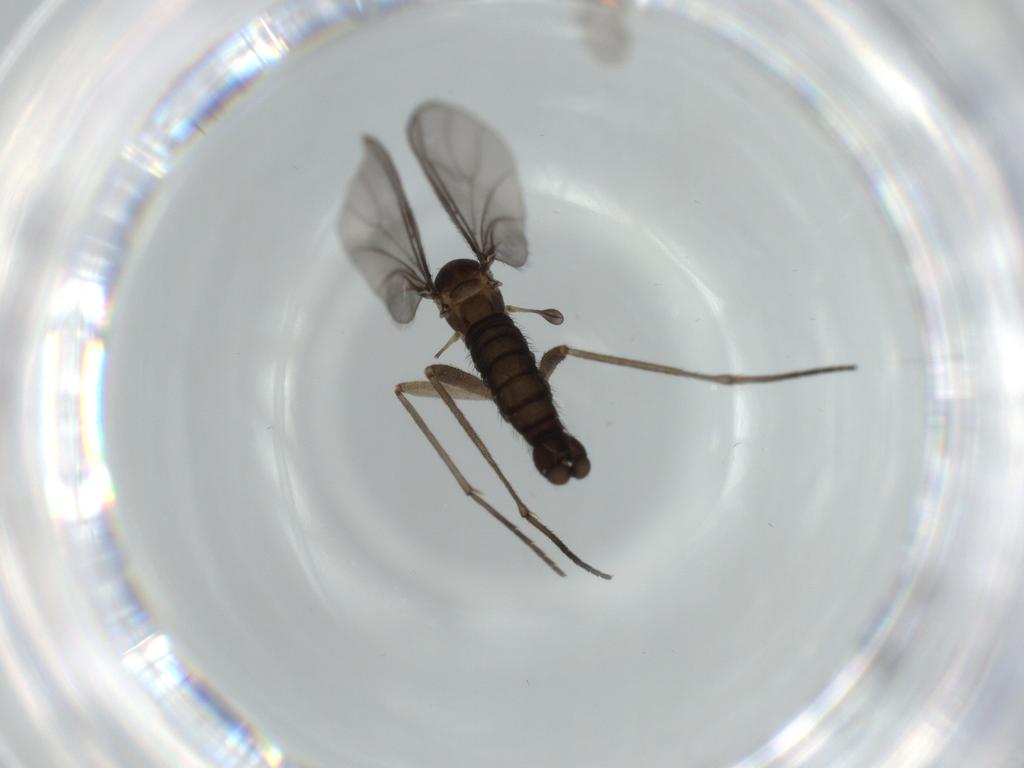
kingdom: Animalia
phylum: Arthropoda
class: Insecta
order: Diptera
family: Sciaridae
